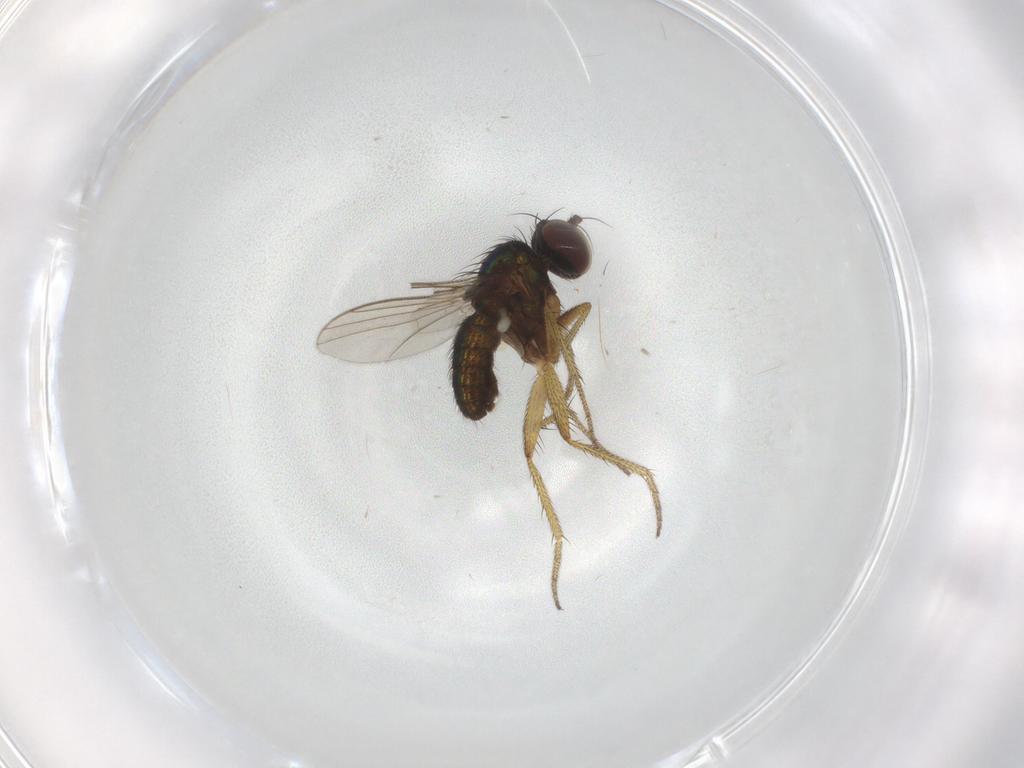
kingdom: Animalia
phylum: Arthropoda
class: Insecta
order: Diptera
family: Dolichopodidae
